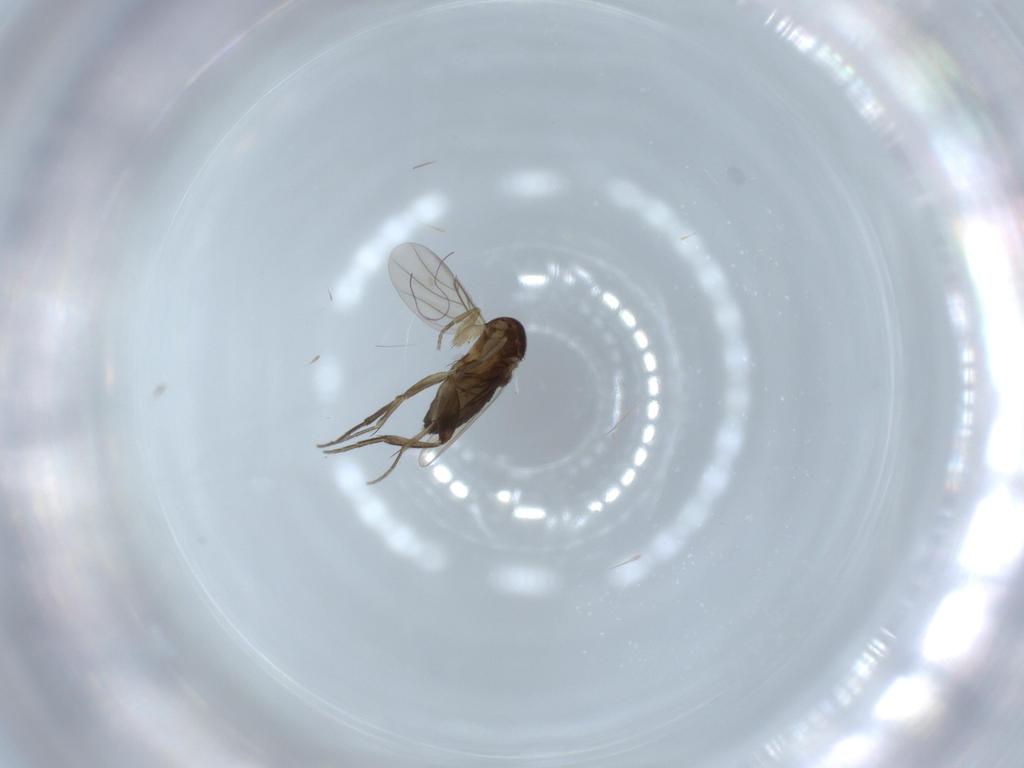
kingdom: Animalia
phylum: Arthropoda
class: Insecta
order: Diptera
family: Phoridae
